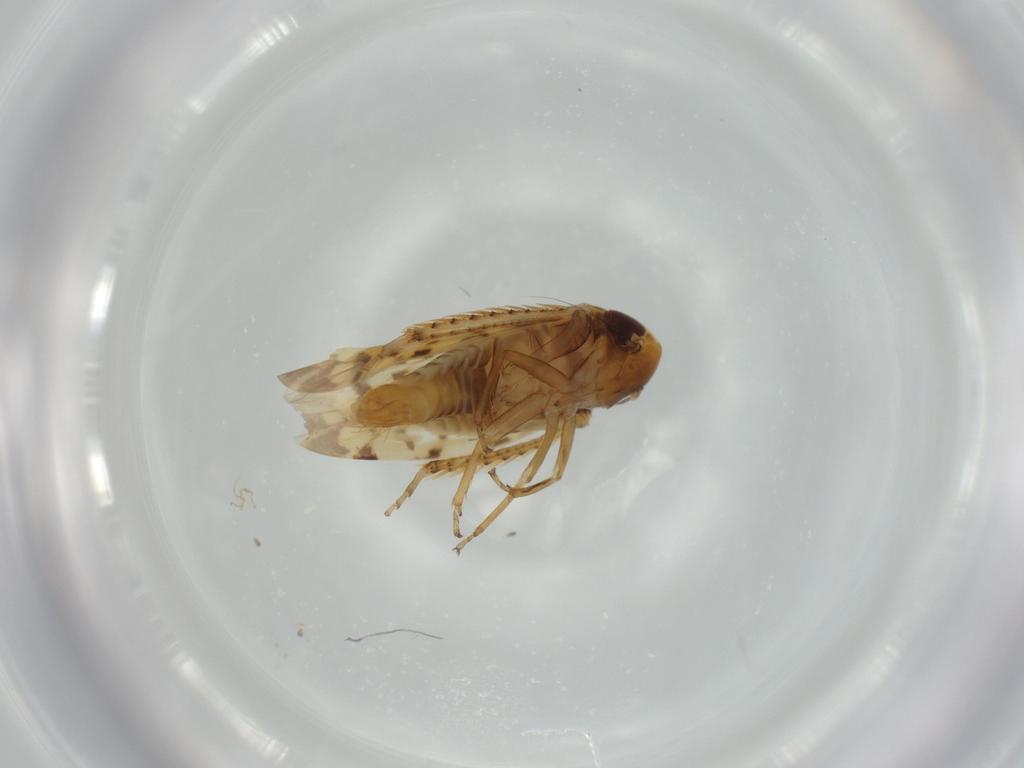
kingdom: Animalia
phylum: Arthropoda
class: Insecta
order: Hemiptera
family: Cicadellidae
